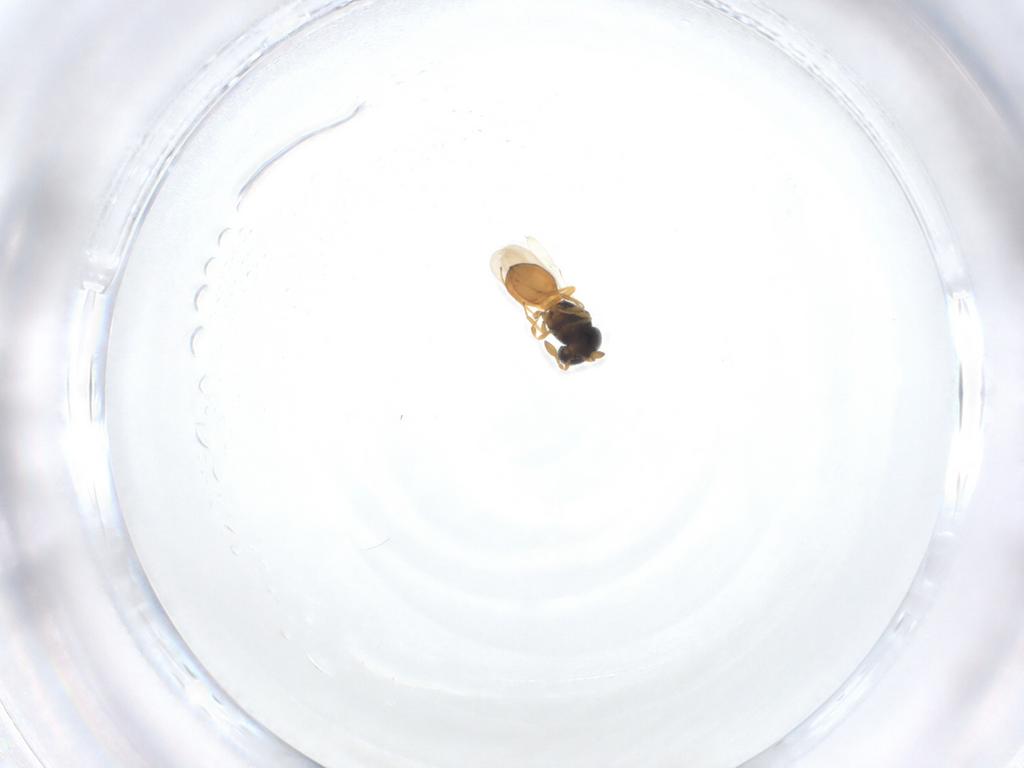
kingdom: Animalia
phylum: Arthropoda
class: Insecta
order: Hymenoptera
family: Scelionidae
